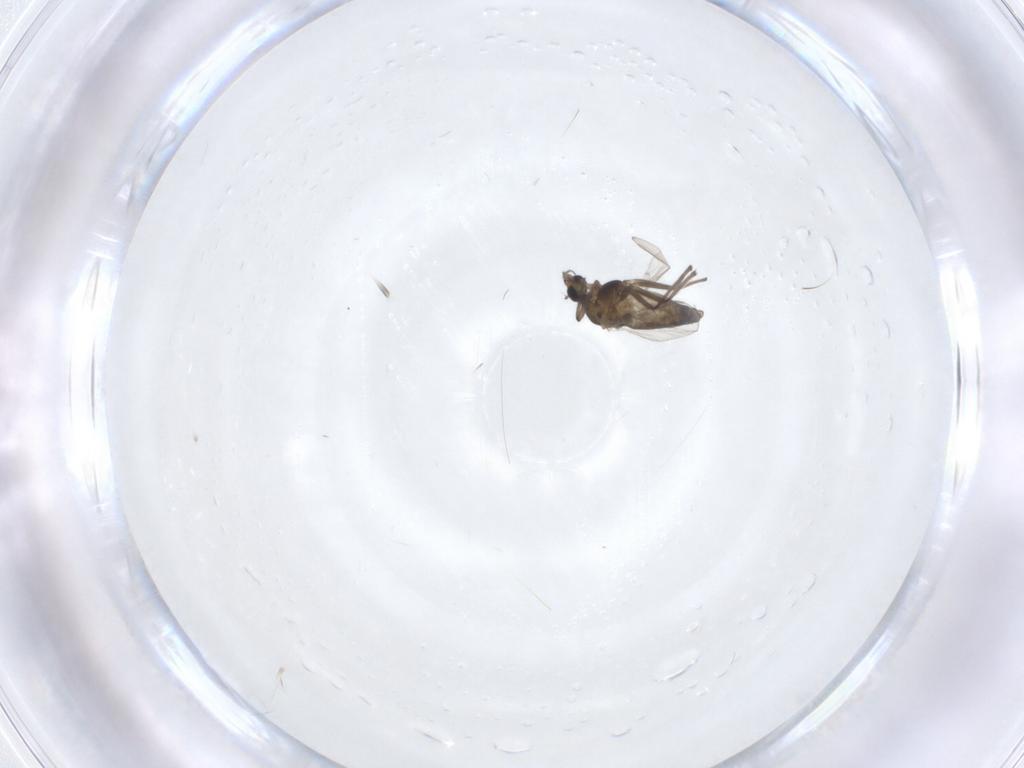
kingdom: Animalia
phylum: Arthropoda
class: Insecta
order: Diptera
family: Chironomidae
